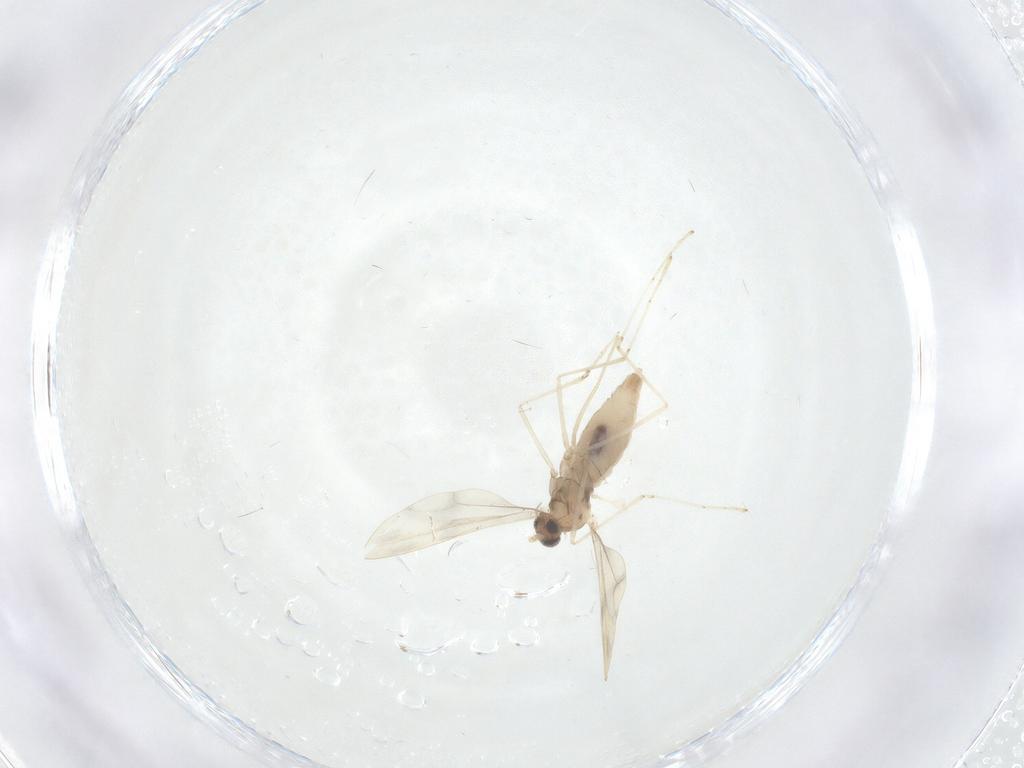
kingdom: Animalia
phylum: Arthropoda
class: Insecta
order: Diptera
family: Cecidomyiidae
